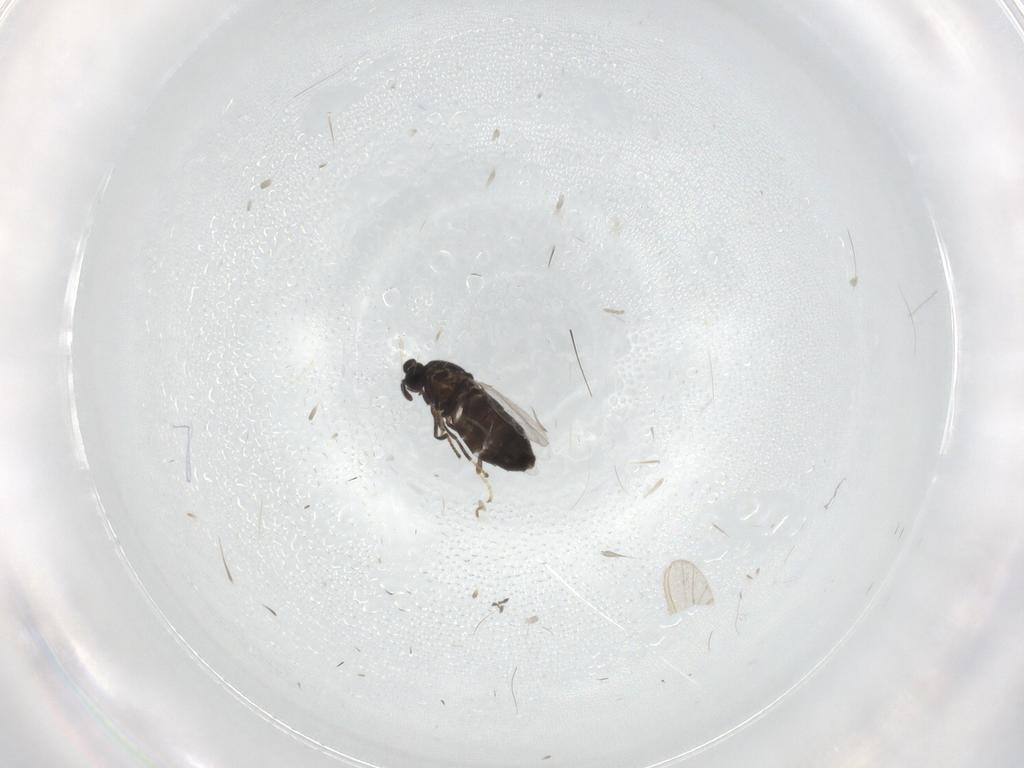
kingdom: Animalia
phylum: Arthropoda
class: Insecta
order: Diptera
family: Scatopsidae
